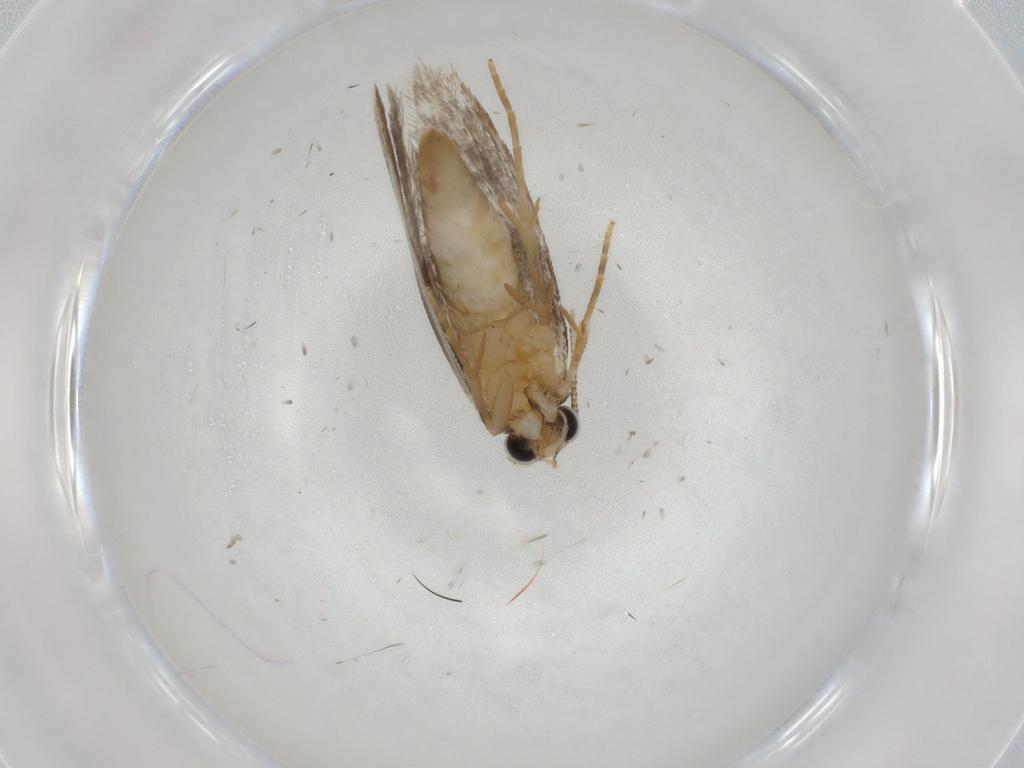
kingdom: Animalia
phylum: Arthropoda
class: Insecta
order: Lepidoptera
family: Tineidae
